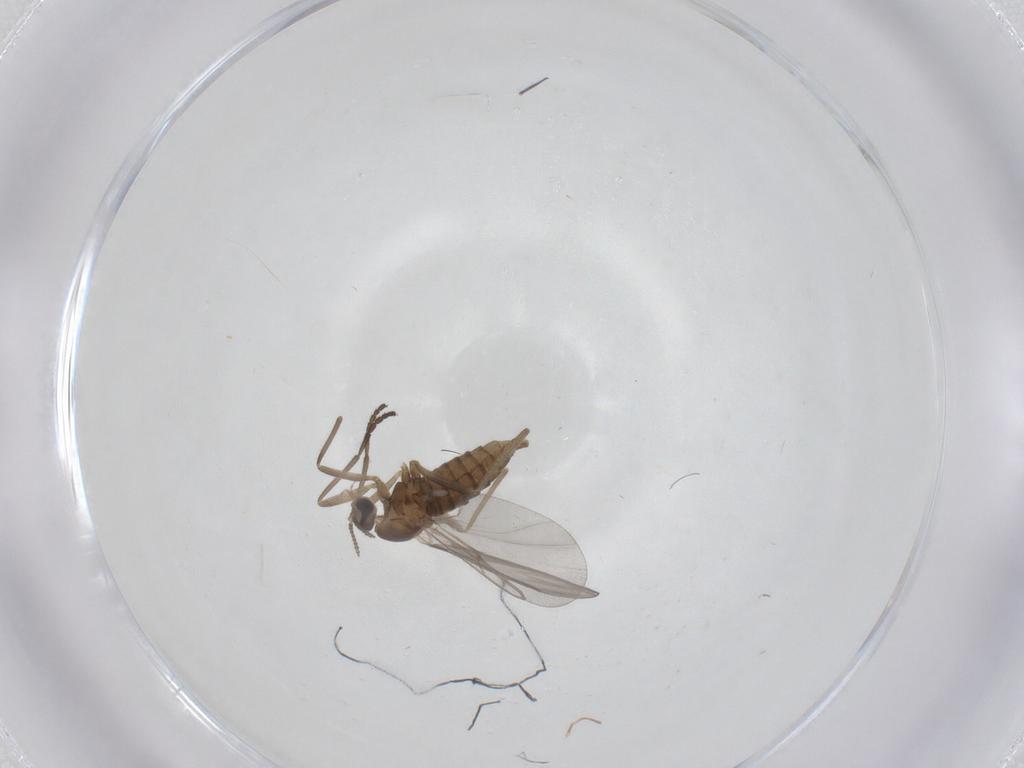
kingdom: Animalia
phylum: Arthropoda
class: Insecta
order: Diptera
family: Cecidomyiidae
